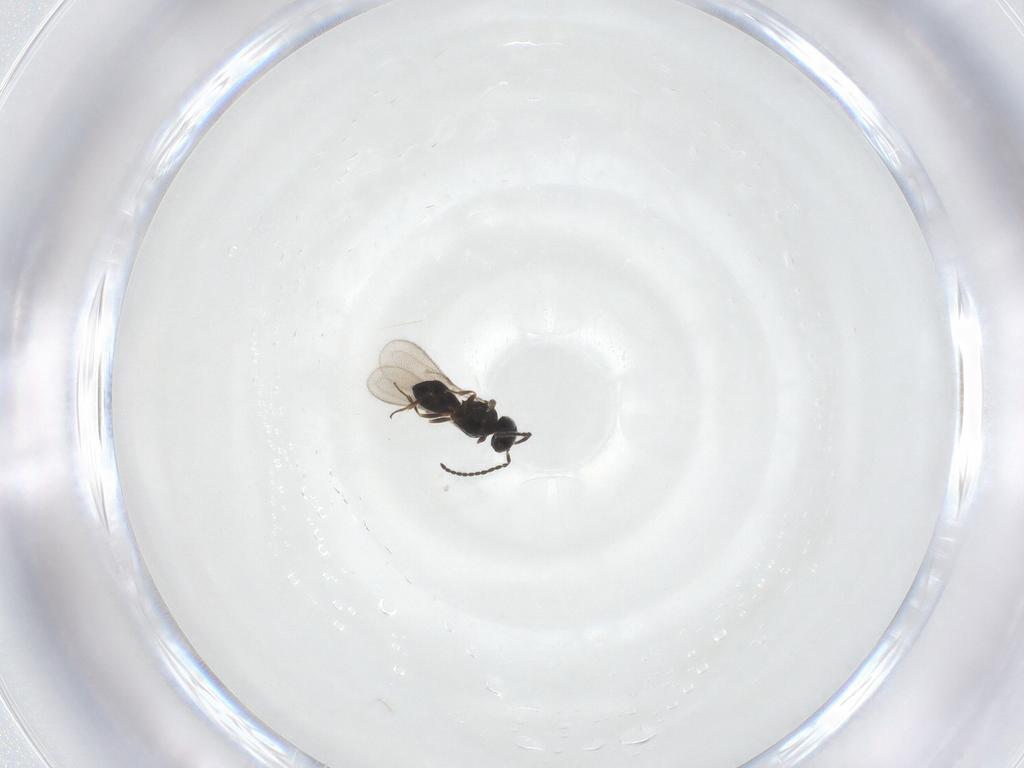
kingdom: Animalia
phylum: Arthropoda
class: Insecta
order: Hymenoptera
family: Scelionidae
